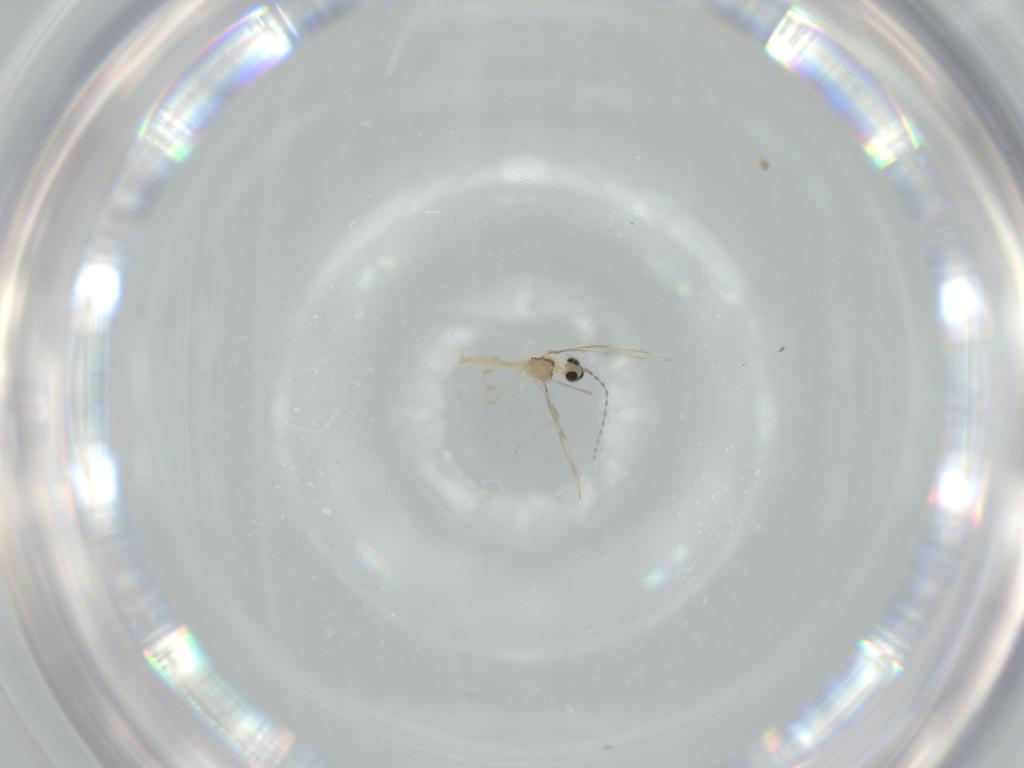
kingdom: Animalia
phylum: Arthropoda
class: Insecta
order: Diptera
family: Cecidomyiidae
